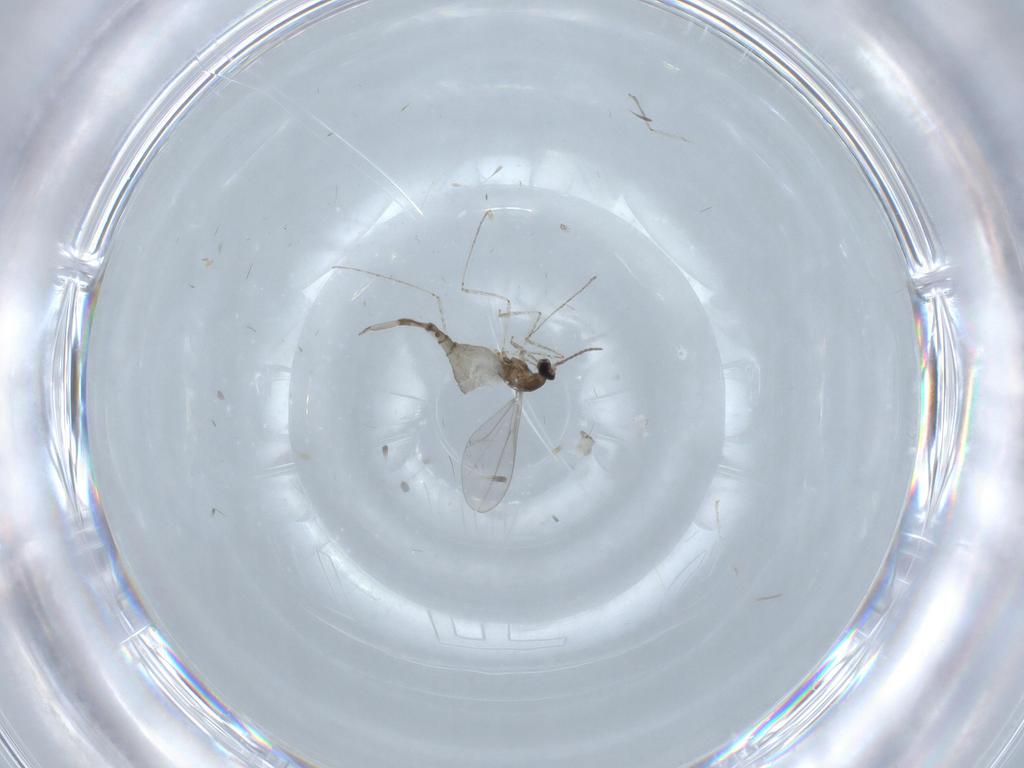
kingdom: Animalia
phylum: Arthropoda
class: Insecta
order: Diptera
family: Cecidomyiidae
